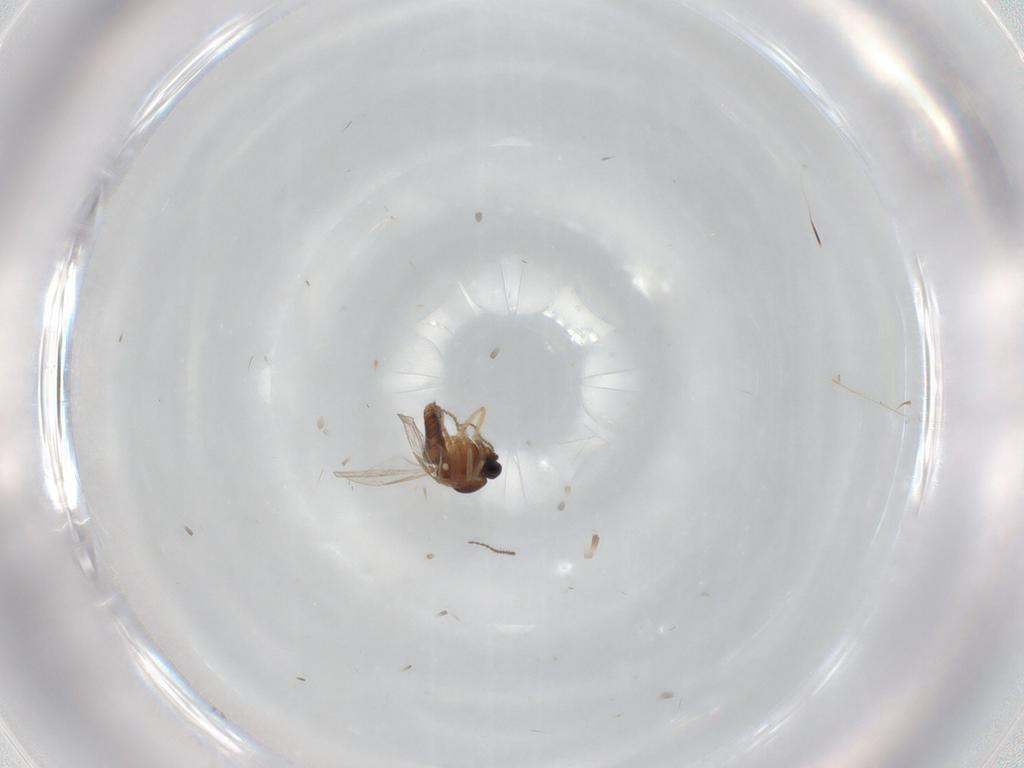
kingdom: Animalia
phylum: Arthropoda
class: Insecta
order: Diptera
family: Ceratopogonidae
